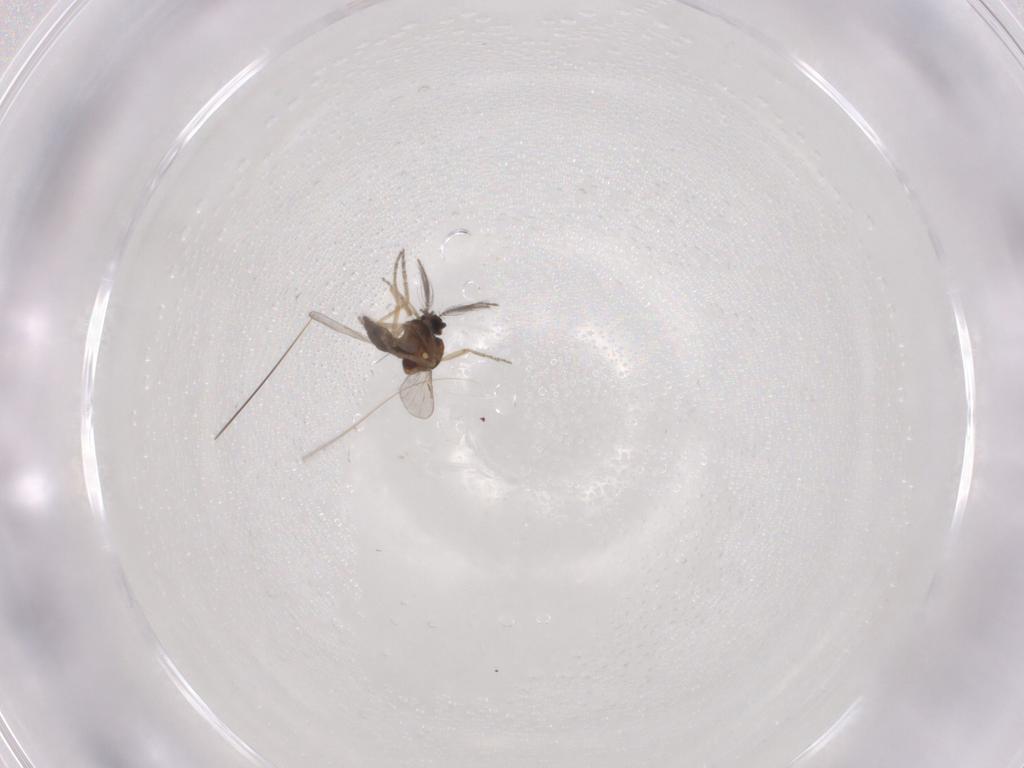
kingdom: Animalia
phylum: Arthropoda
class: Insecta
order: Diptera
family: Ceratopogonidae
